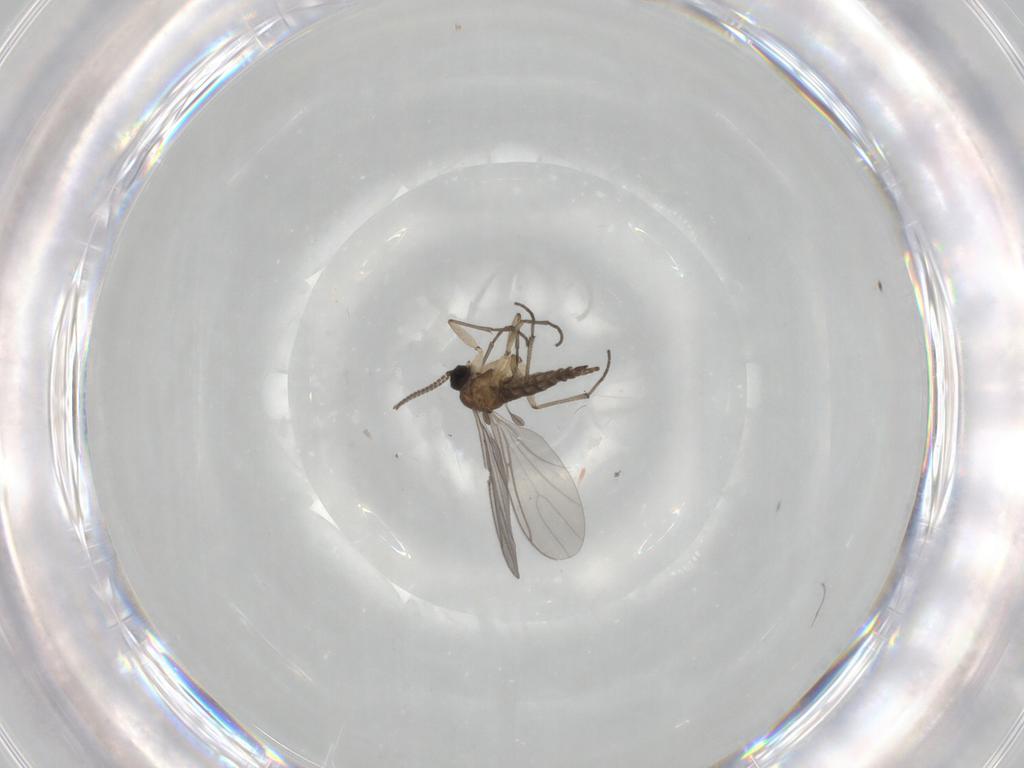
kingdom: Animalia
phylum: Arthropoda
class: Insecta
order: Diptera
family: Sciaridae
